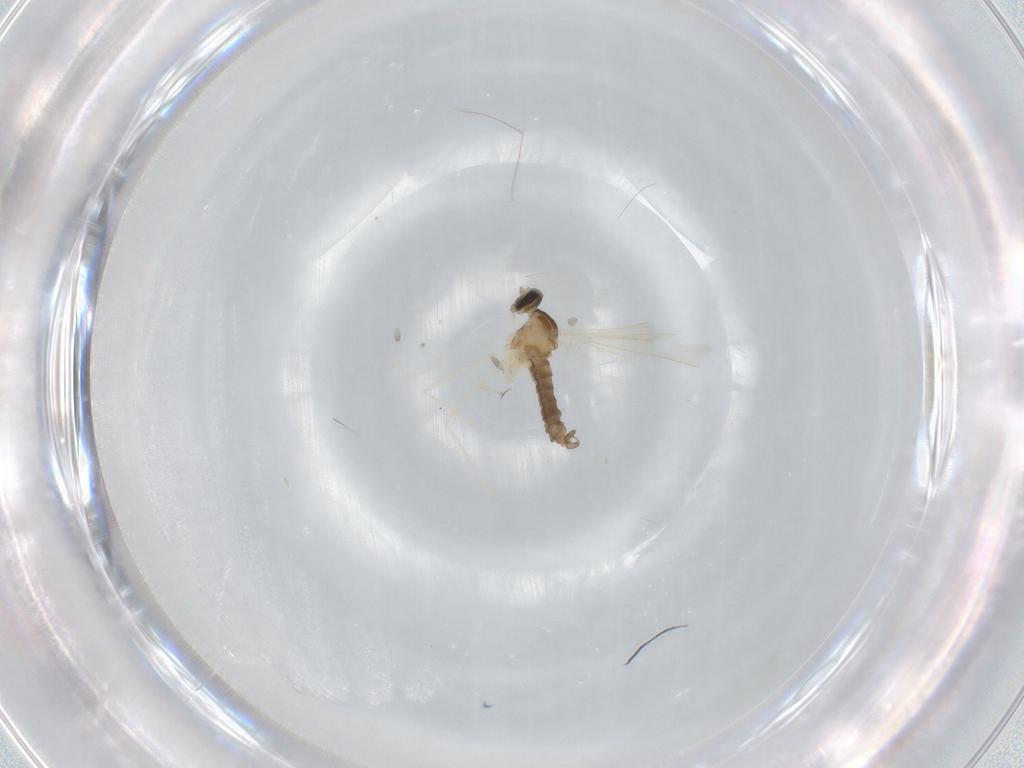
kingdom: Animalia
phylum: Arthropoda
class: Insecta
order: Diptera
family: Cecidomyiidae
